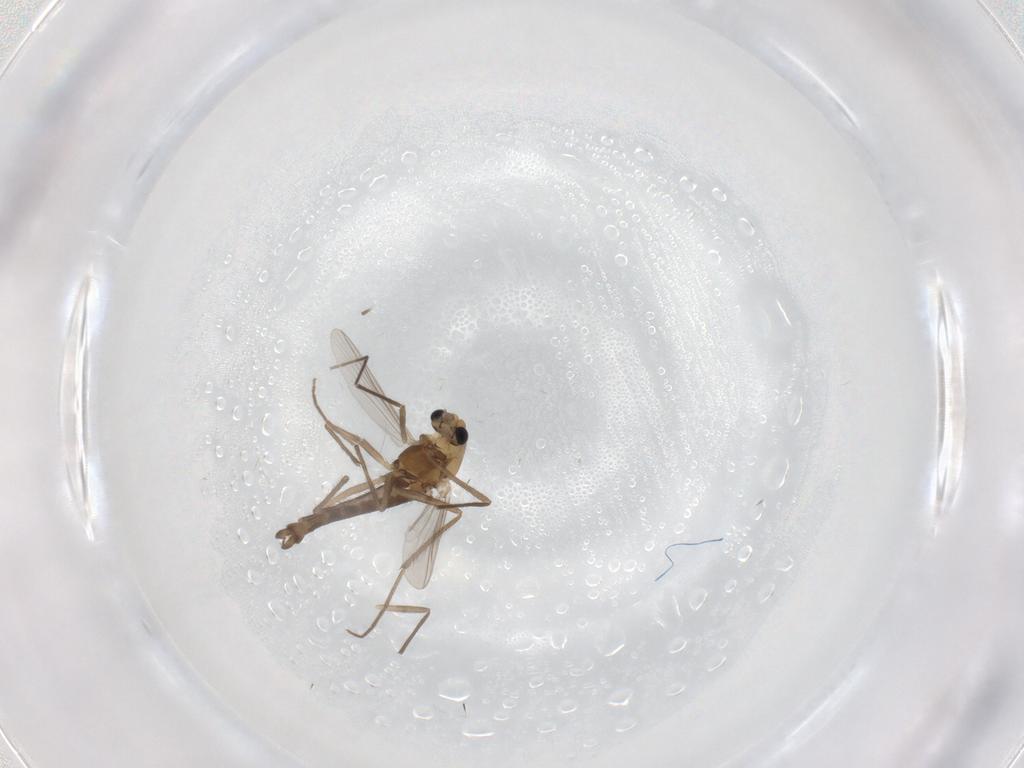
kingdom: Animalia
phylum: Arthropoda
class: Insecta
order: Diptera
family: Chironomidae
